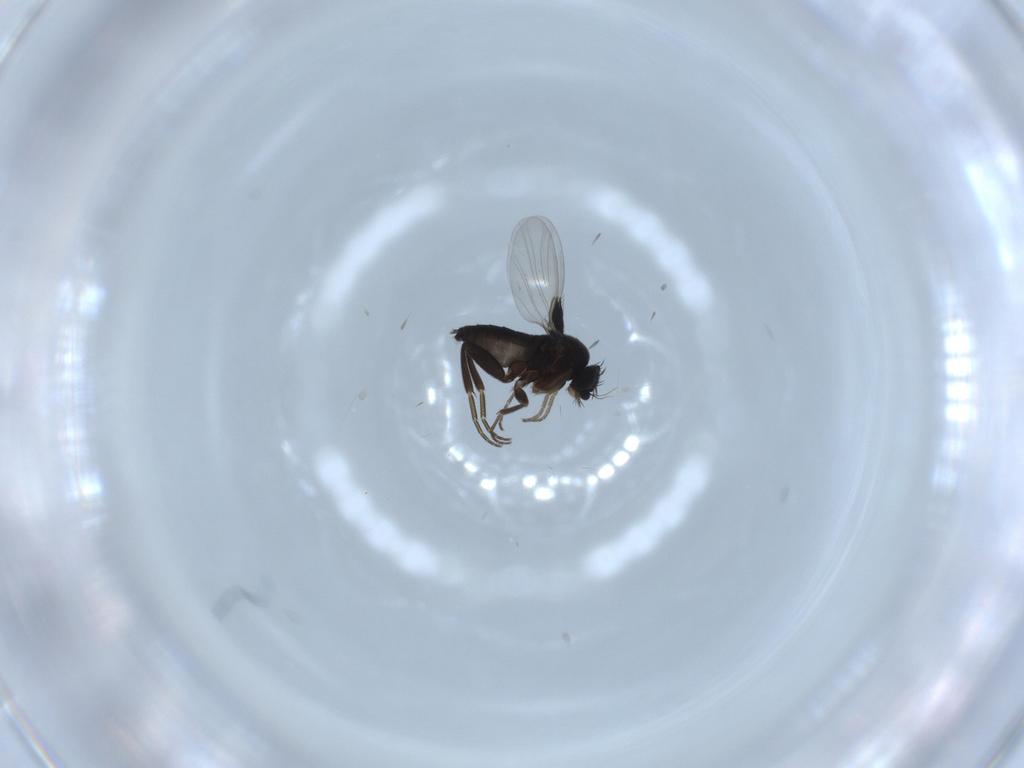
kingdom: Animalia
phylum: Arthropoda
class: Insecta
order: Diptera
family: Phoridae
